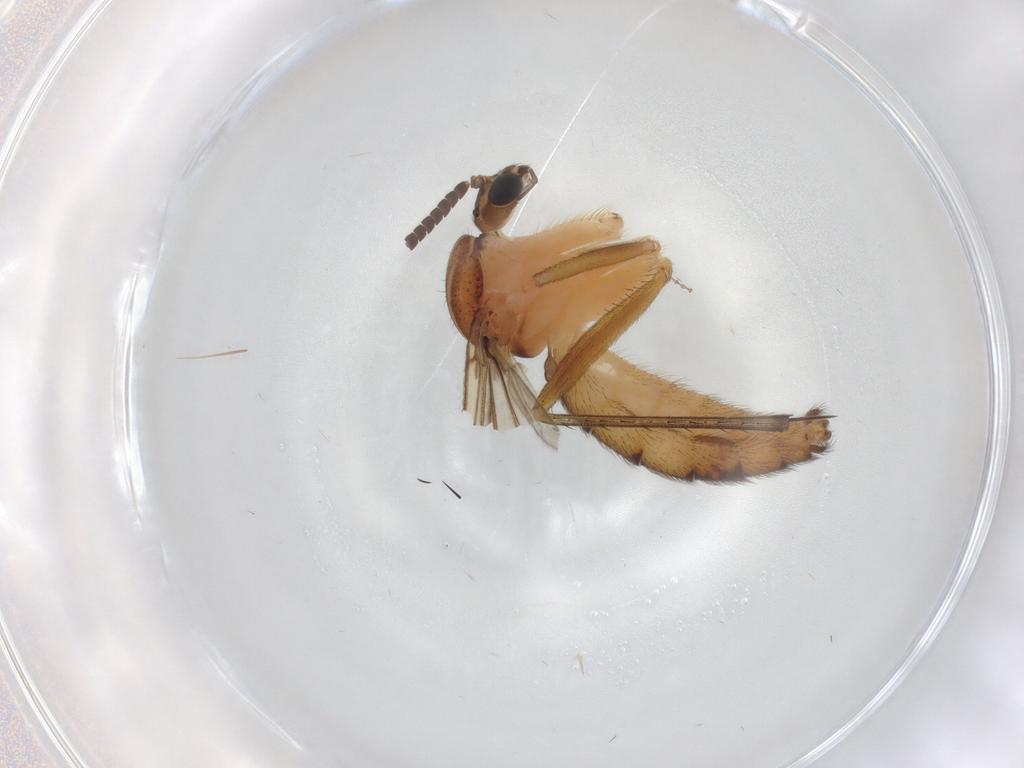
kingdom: Animalia
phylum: Arthropoda
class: Insecta
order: Diptera
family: Sphaeroceridae
